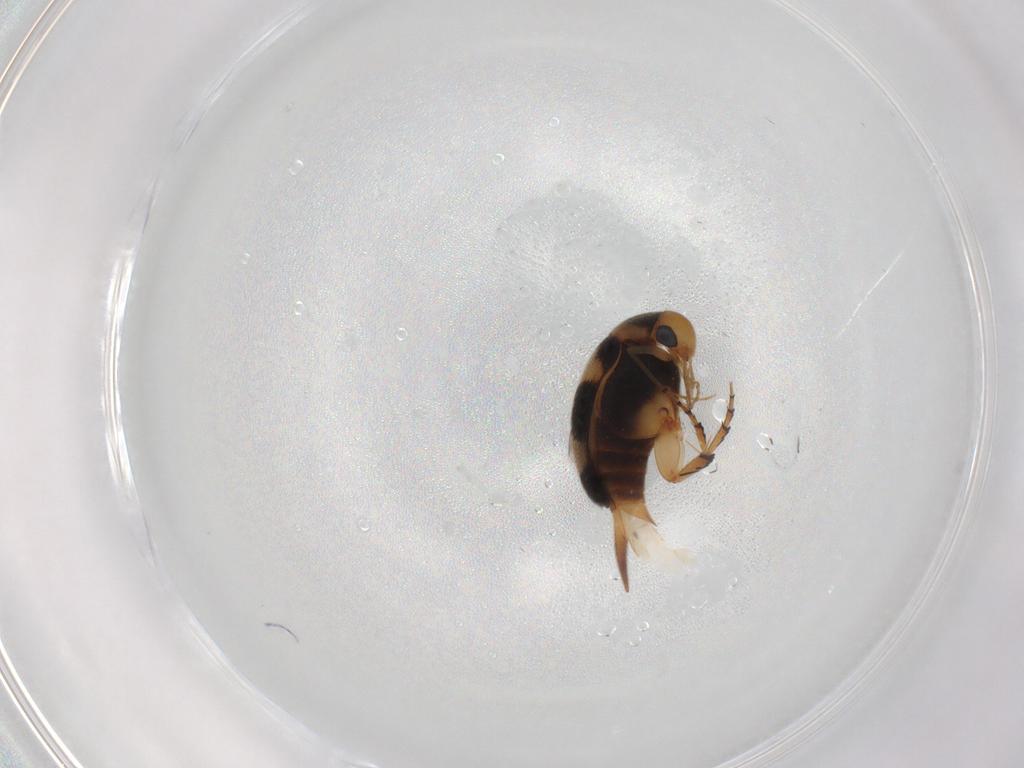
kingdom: Animalia
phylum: Arthropoda
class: Insecta
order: Coleoptera
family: Mordellidae
